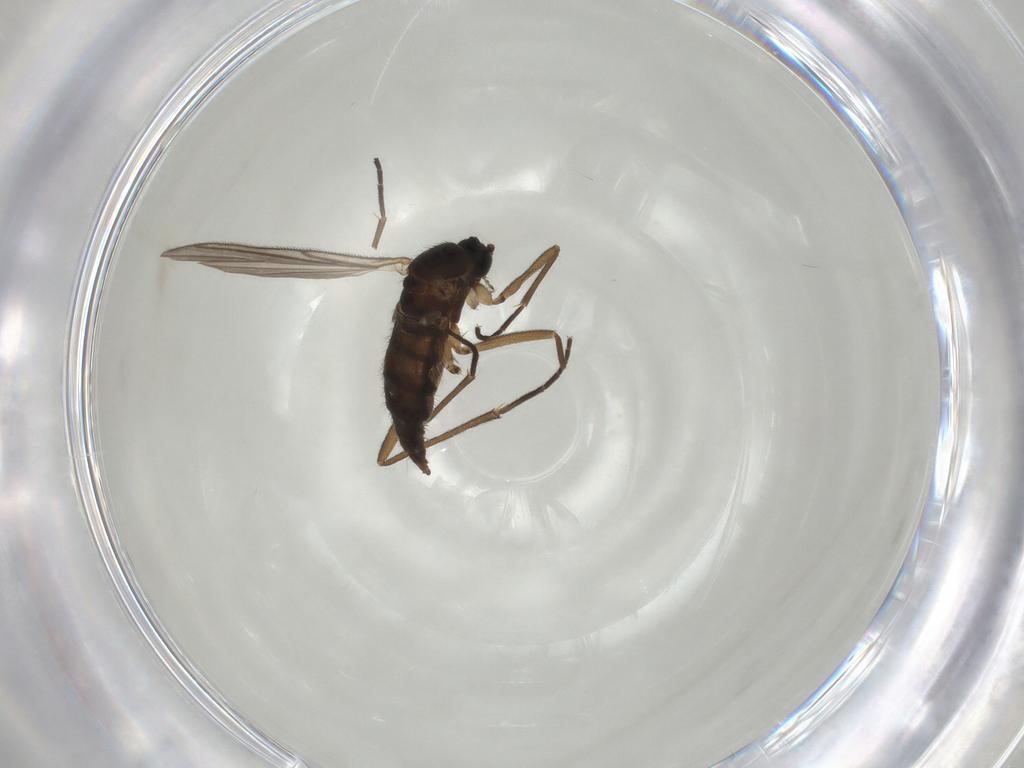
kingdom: Animalia
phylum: Arthropoda
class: Insecta
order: Diptera
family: Sciaridae
